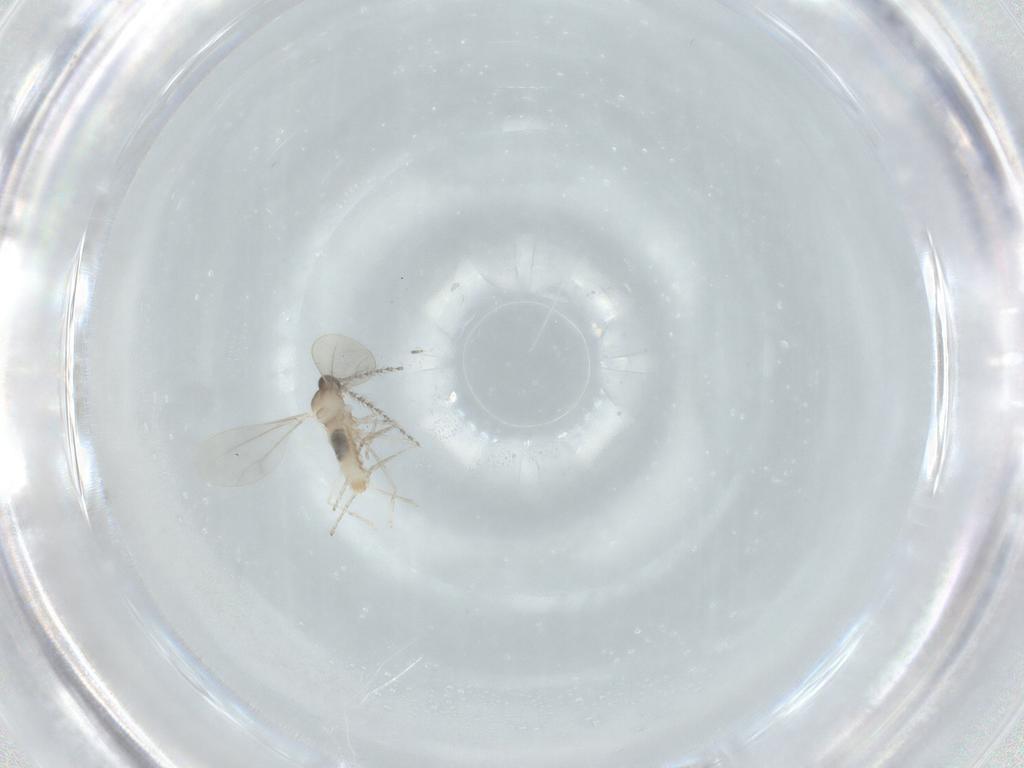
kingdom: Animalia
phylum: Arthropoda
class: Insecta
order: Diptera
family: Cecidomyiidae
